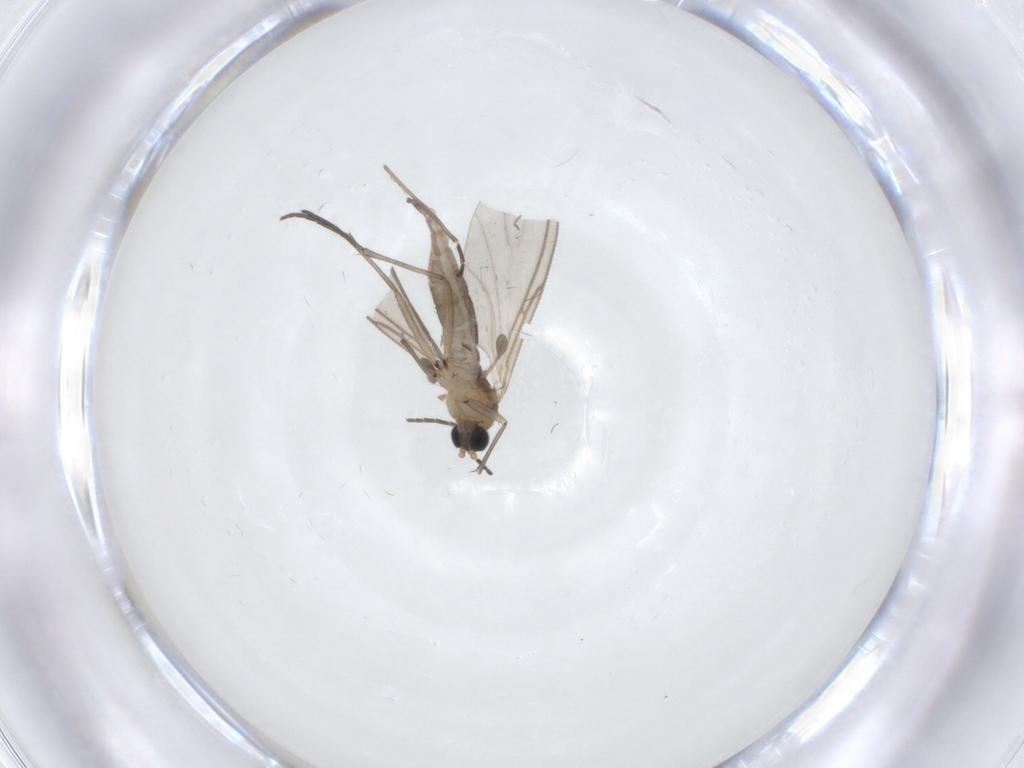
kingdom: Animalia
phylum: Arthropoda
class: Insecta
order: Diptera
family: Sciaridae
